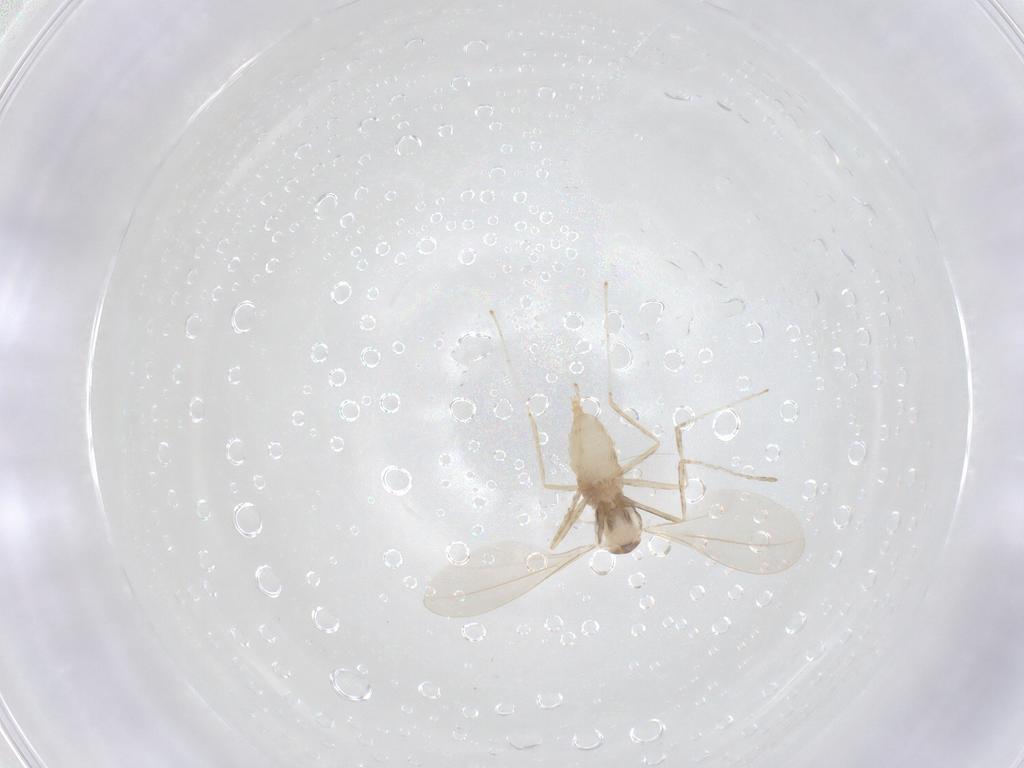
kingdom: Animalia
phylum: Arthropoda
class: Insecta
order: Diptera
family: Cecidomyiidae
